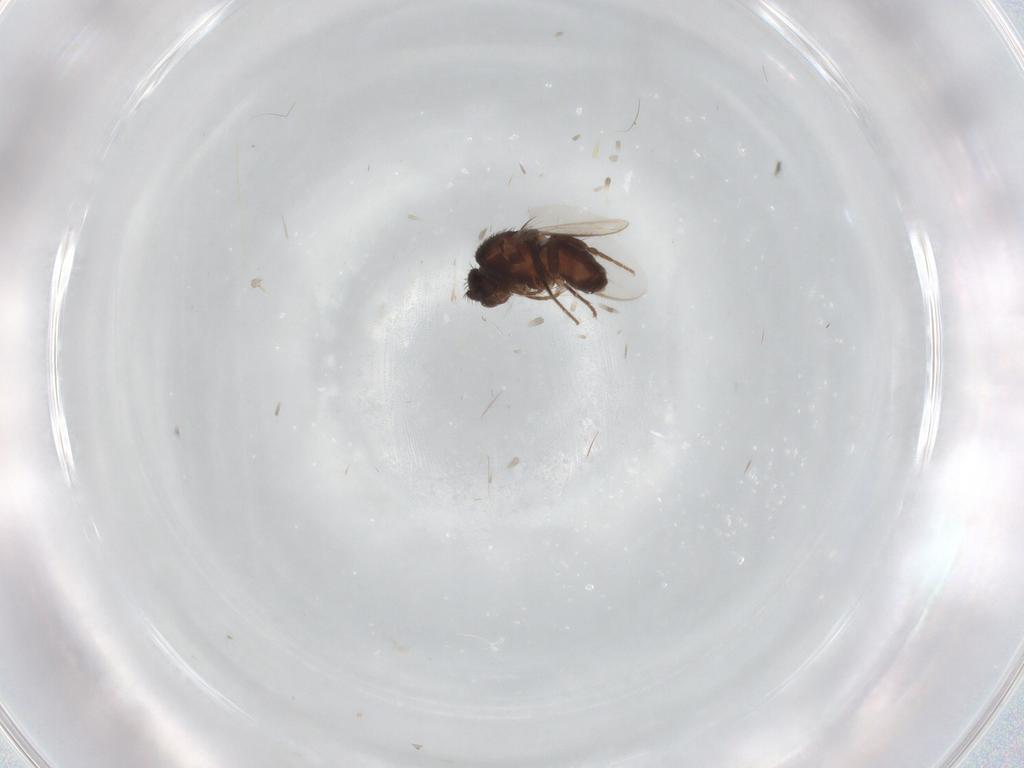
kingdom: Animalia
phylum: Arthropoda
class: Insecta
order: Diptera
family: Sphaeroceridae
